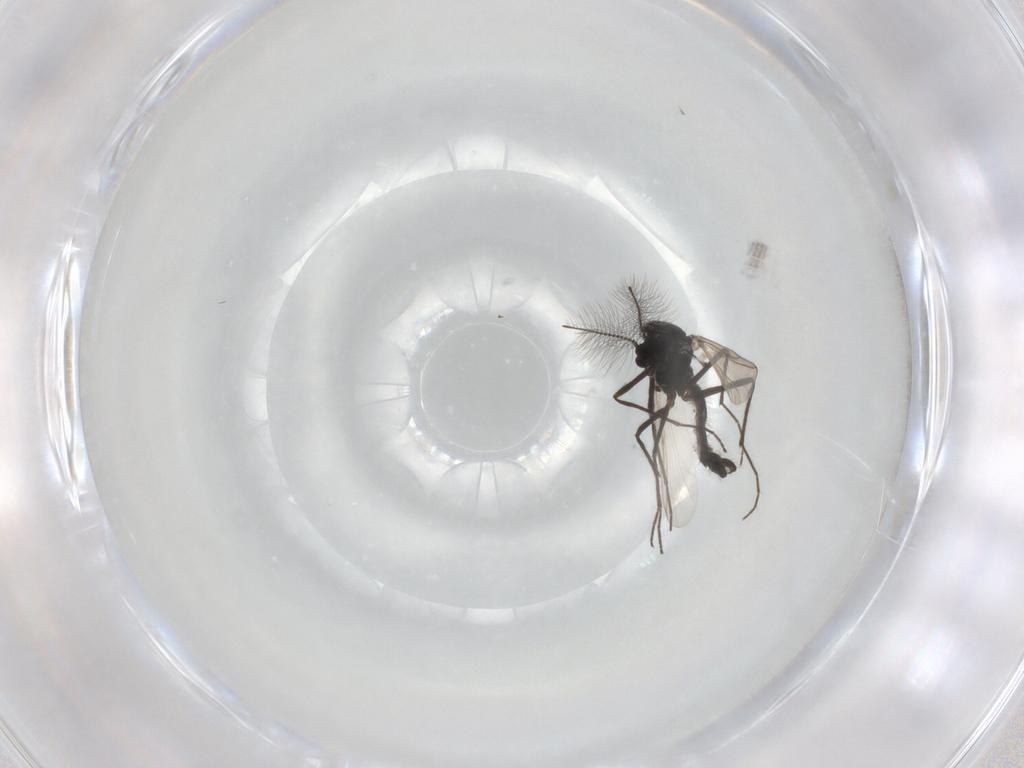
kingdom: Animalia
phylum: Arthropoda
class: Insecta
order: Diptera
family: Chironomidae
